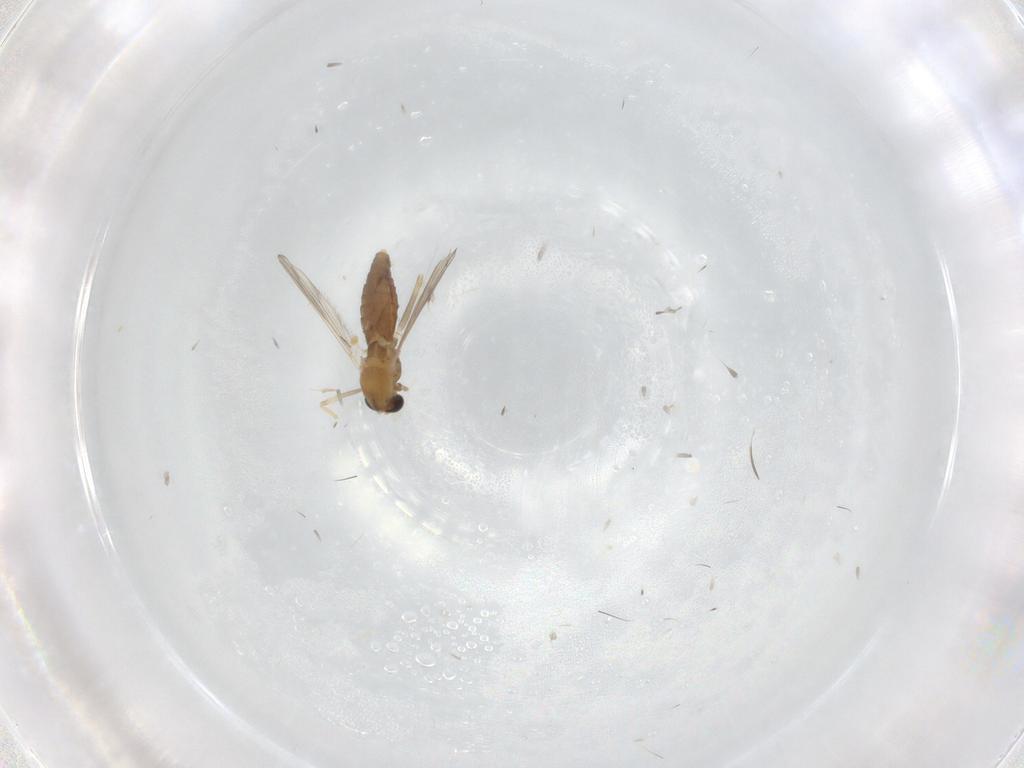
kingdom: Animalia
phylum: Arthropoda
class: Insecta
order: Diptera
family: Chironomidae
